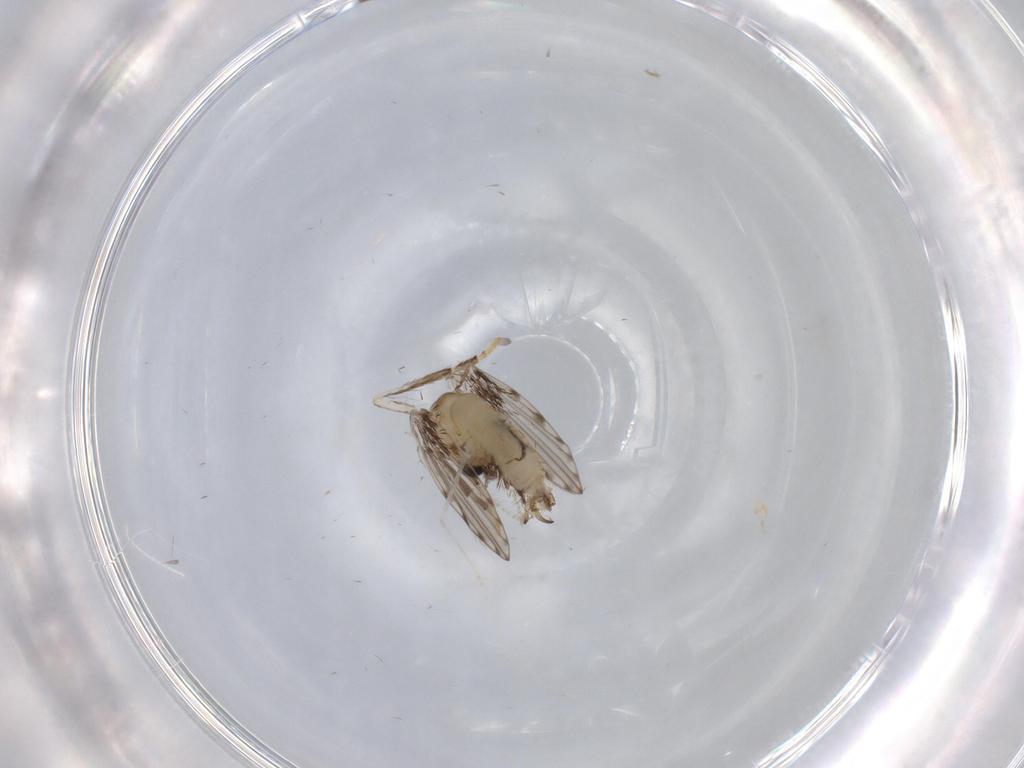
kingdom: Animalia
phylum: Arthropoda
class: Insecta
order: Diptera
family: Psychodidae
